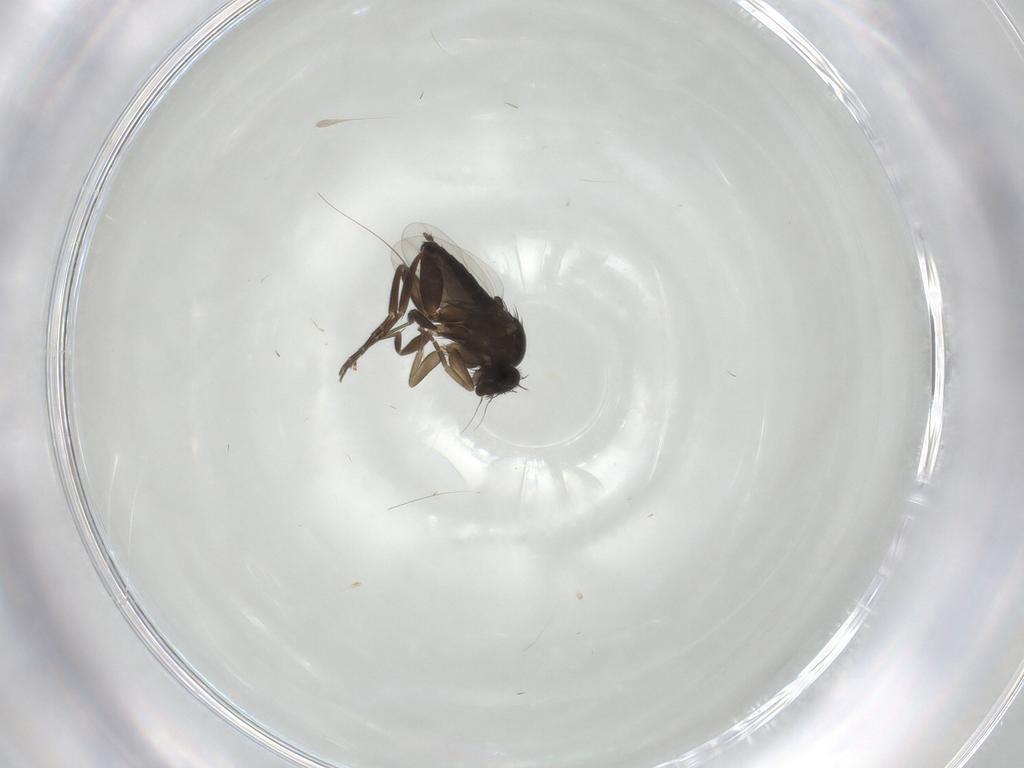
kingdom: Animalia
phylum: Arthropoda
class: Insecta
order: Diptera
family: Phoridae
